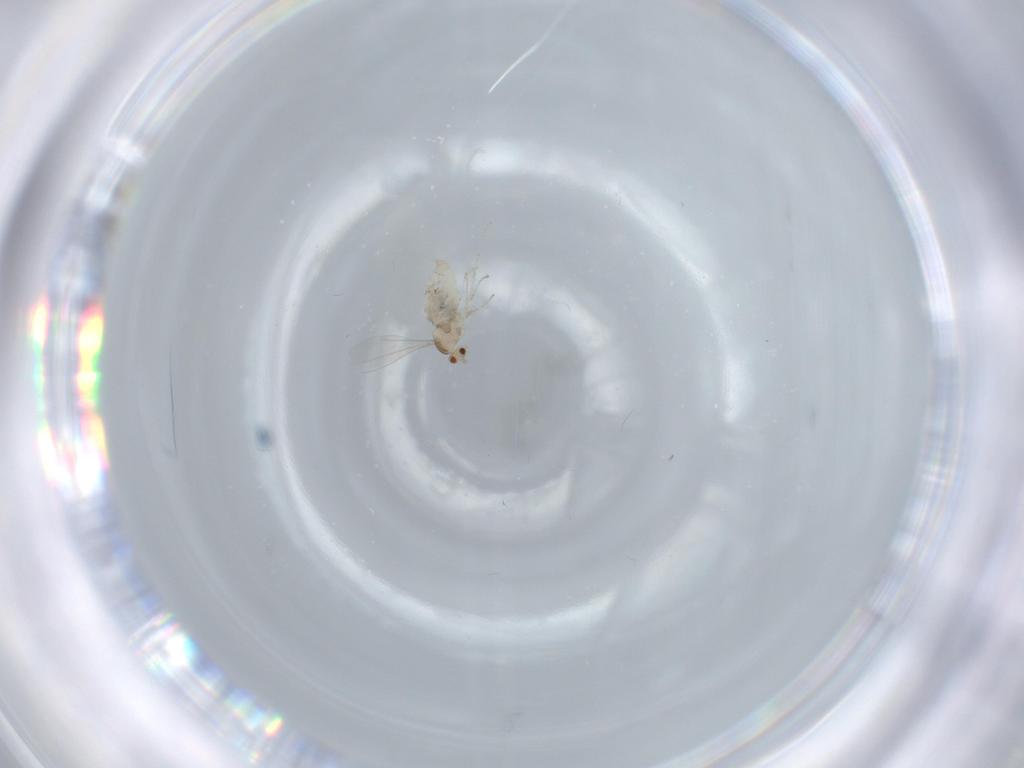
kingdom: Animalia
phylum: Arthropoda
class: Insecta
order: Diptera
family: Cecidomyiidae
